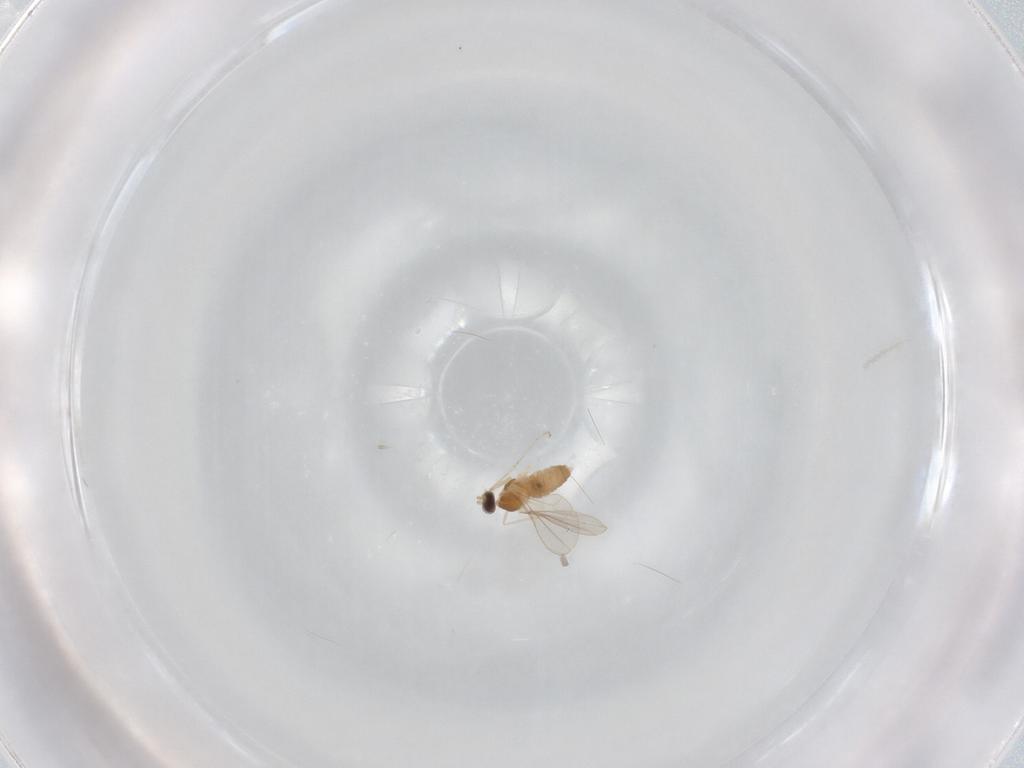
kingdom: Animalia
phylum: Arthropoda
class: Insecta
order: Diptera
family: Cecidomyiidae
